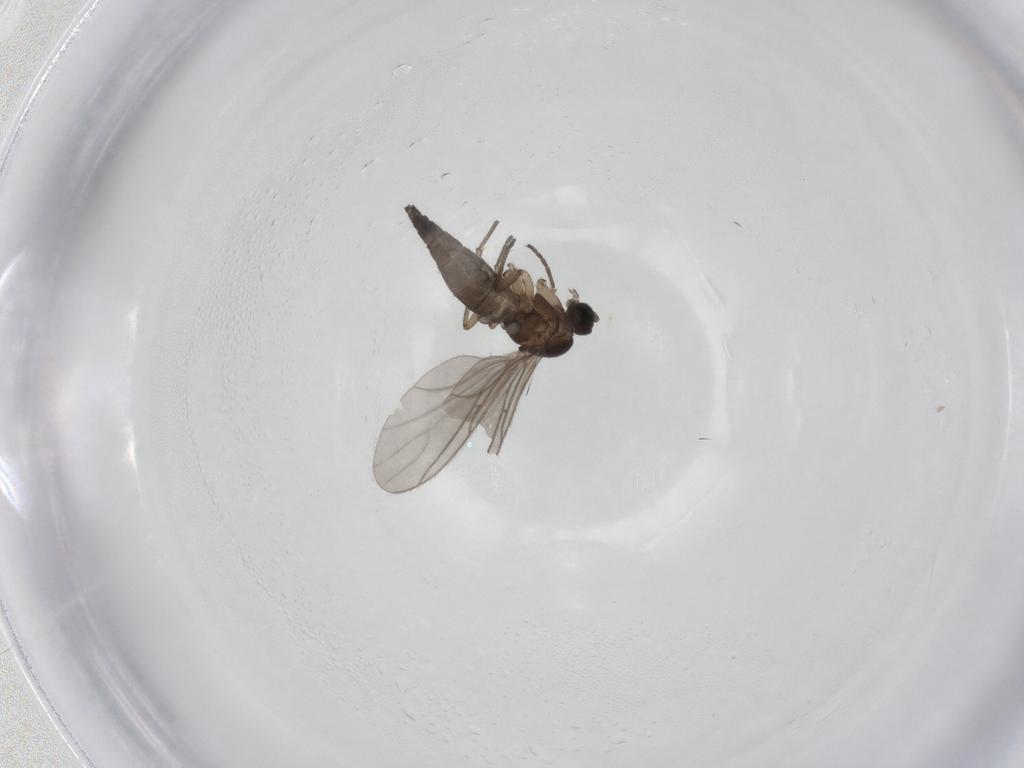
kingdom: Animalia
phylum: Arthropoda
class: Insecta
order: Diptera
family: Sciaridae
